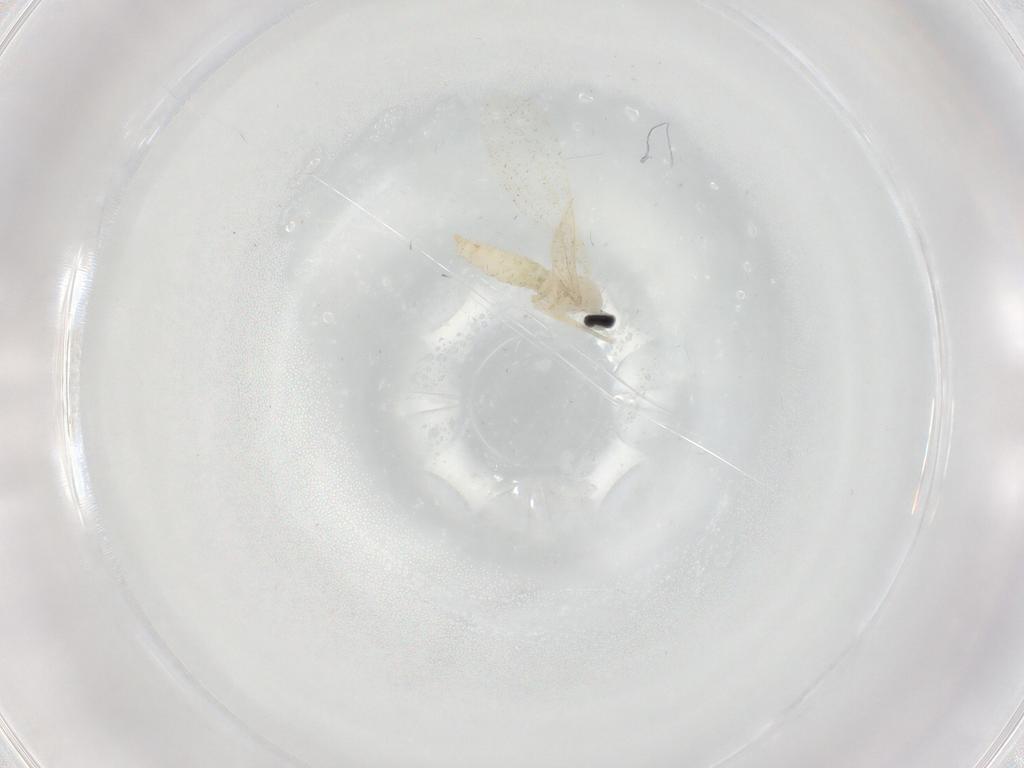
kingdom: Animalia
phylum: Arthropoda
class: Insecta
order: Diptera
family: Cecidomyiidae
